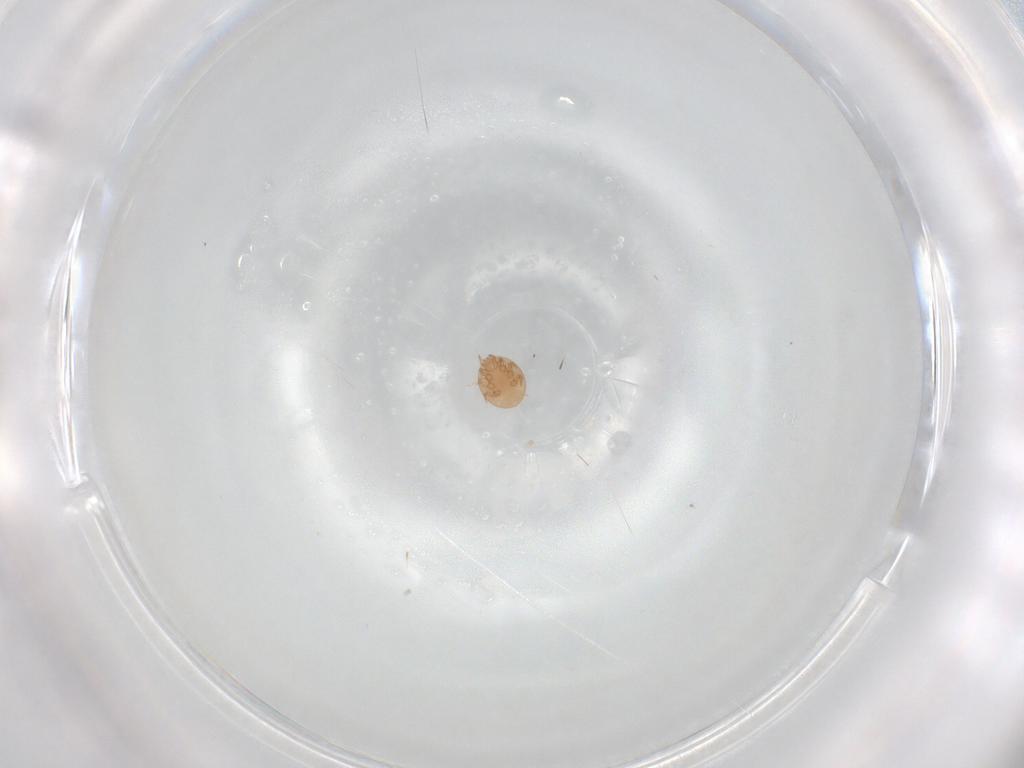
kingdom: Animalia
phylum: Arthropoda
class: Arachnida
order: Mesostigmata
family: Trematuridae
